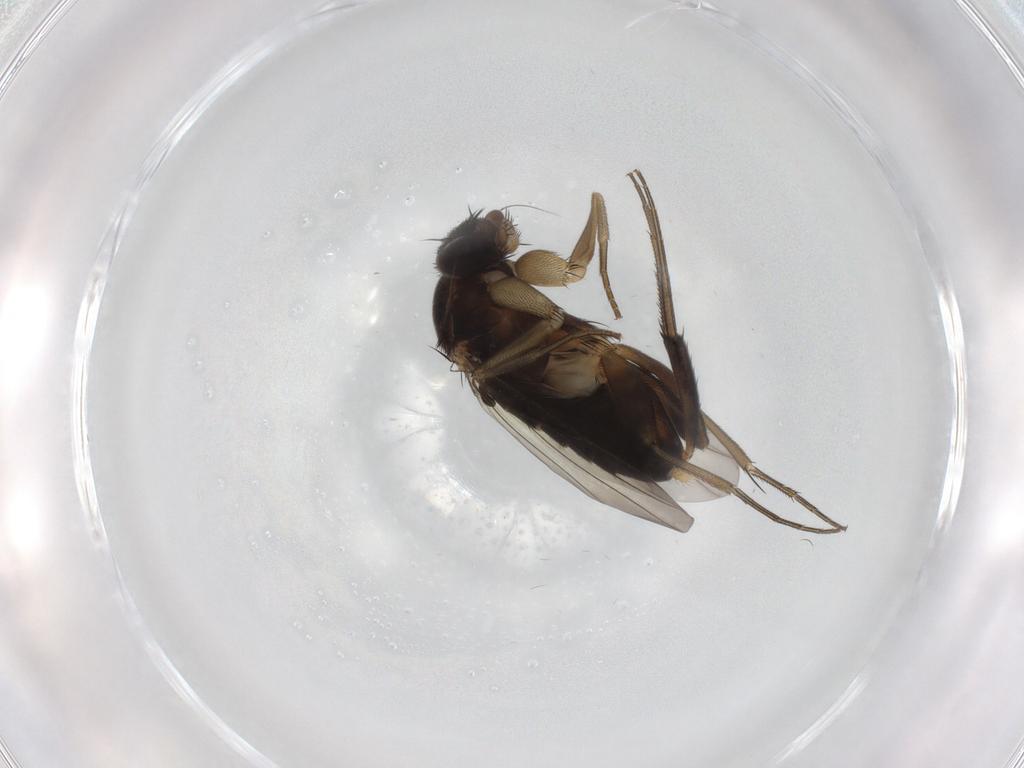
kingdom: Animalia
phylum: Arthropoda
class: Insecta
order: Diptera
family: Phoridae
